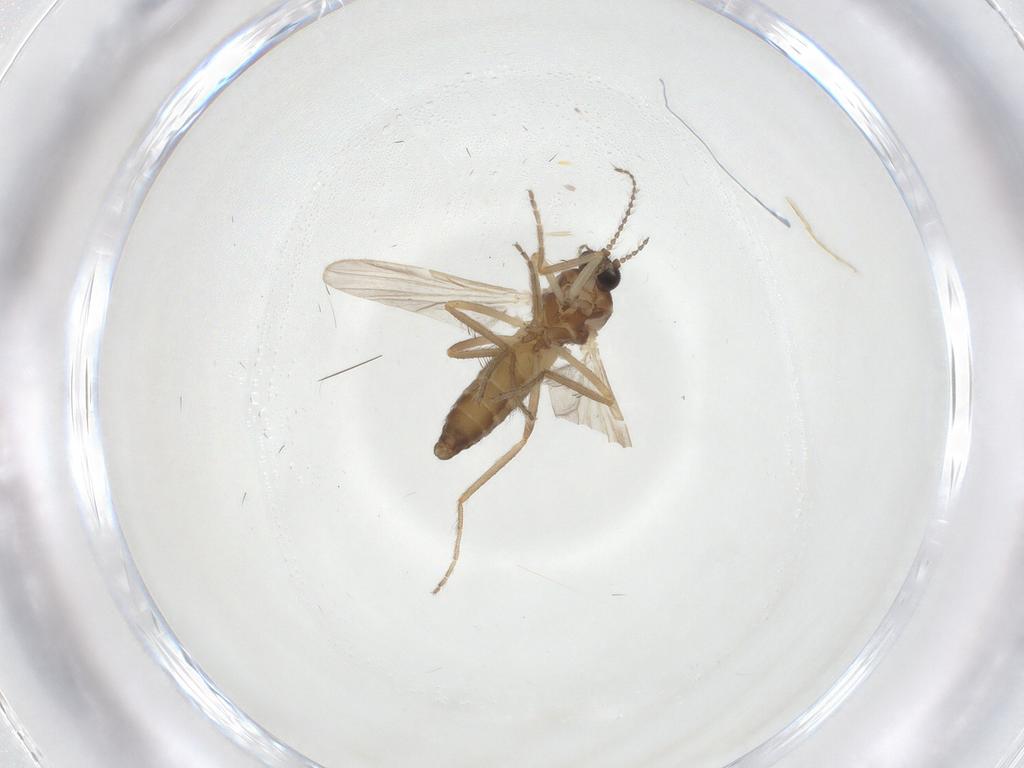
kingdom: Animalia
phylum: Arthropoda
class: Insecta
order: Diptera
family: Ceratopogonidae
